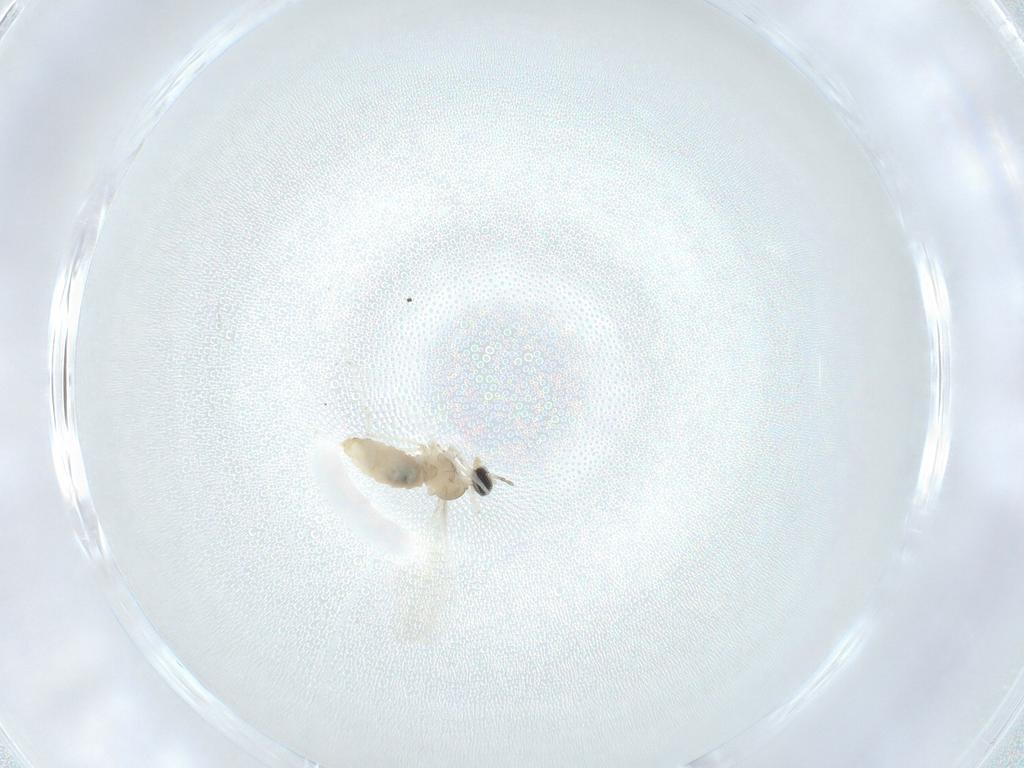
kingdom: Animalia
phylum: Arthropoda
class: Insecta
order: Diptera
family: Cecidomyiidae
